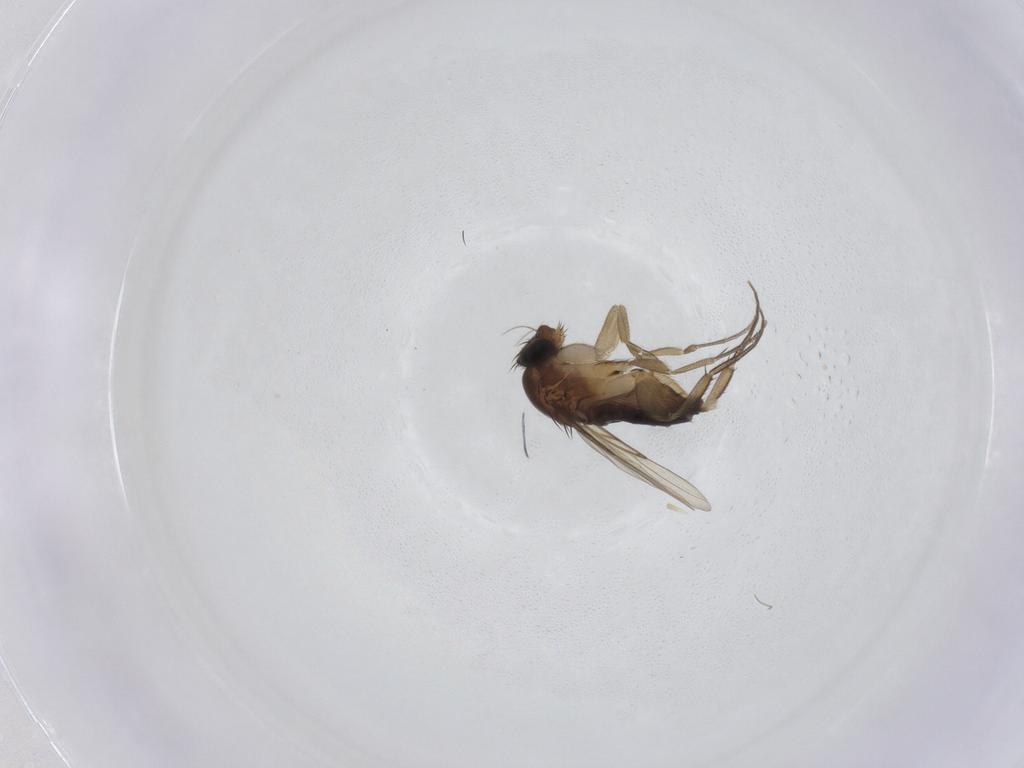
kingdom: Animalia
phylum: Arthropoda
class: Insecta
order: Diptera
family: Phoridae
